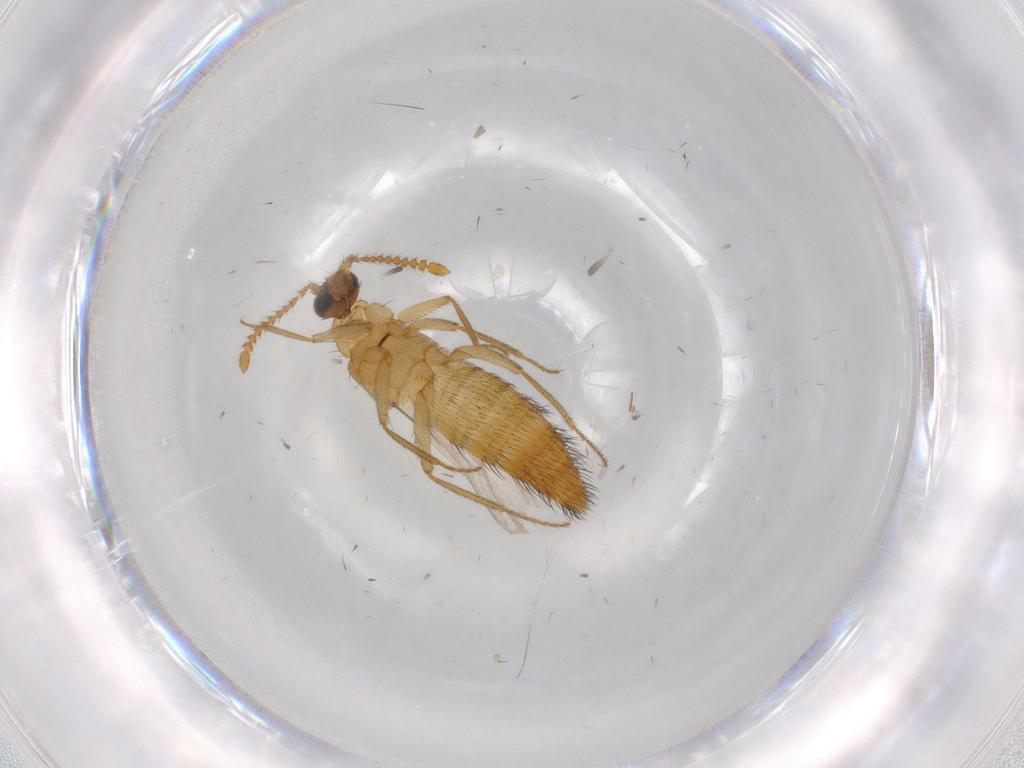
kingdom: Animalia
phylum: Arthropoda
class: Insecta
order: Coleoptera
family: Staphylinidae
